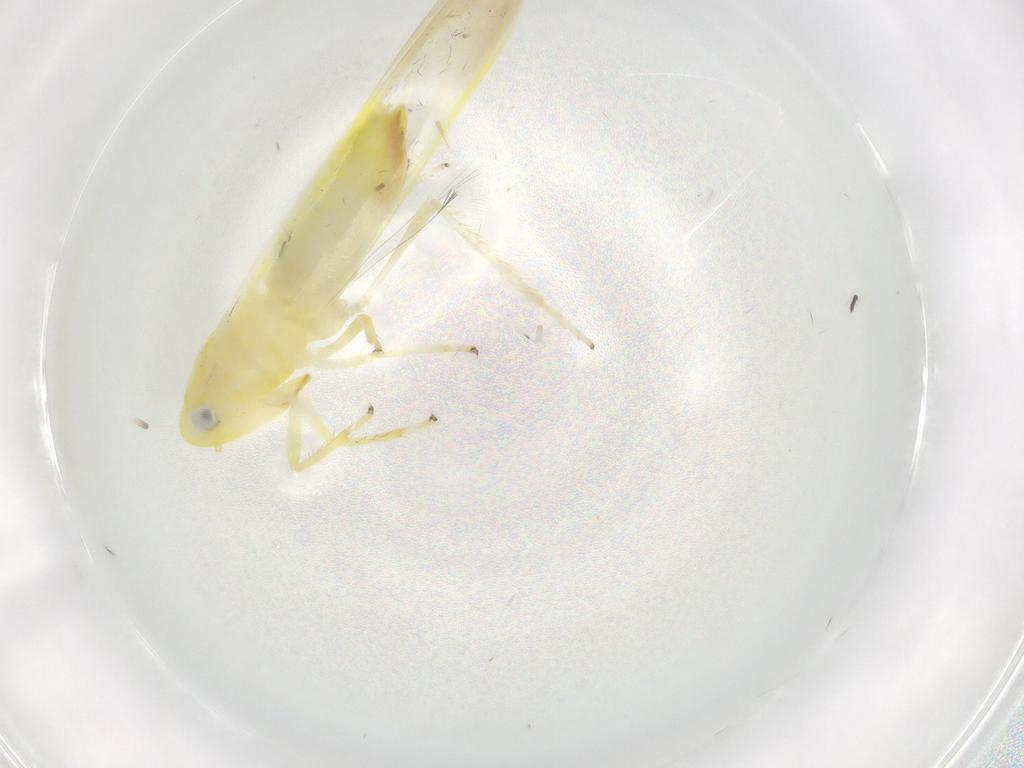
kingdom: Animalia
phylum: Arthropoda
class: Insecta
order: Hemiptera
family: Cicadellidae
